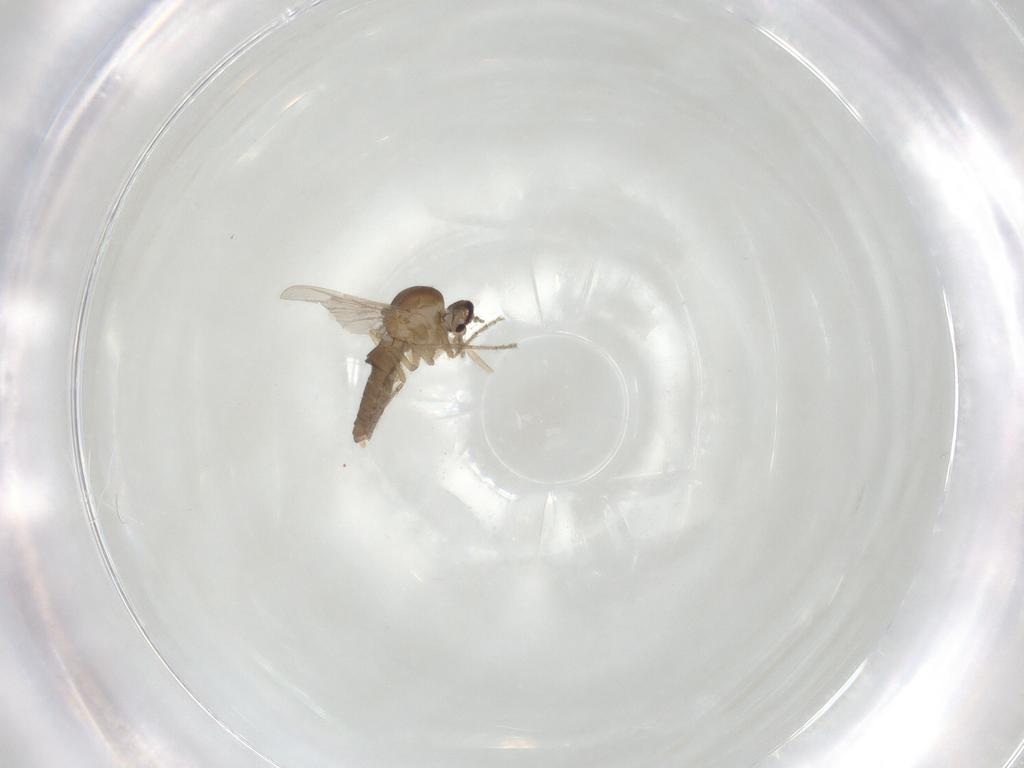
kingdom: Animalia
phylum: Arthropoda
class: Insecta
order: Diptera
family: Ceratopogonidae
